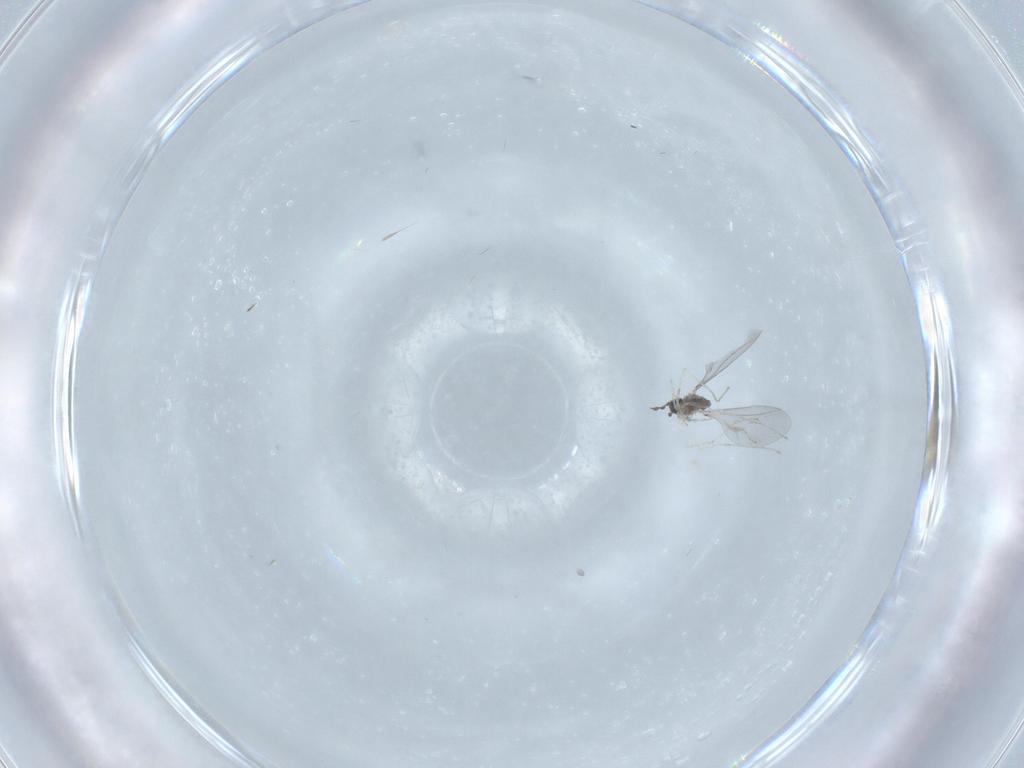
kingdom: Animalia
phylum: Arthropoda
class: Insecta
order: Diptera
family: Cecidomyiidae
